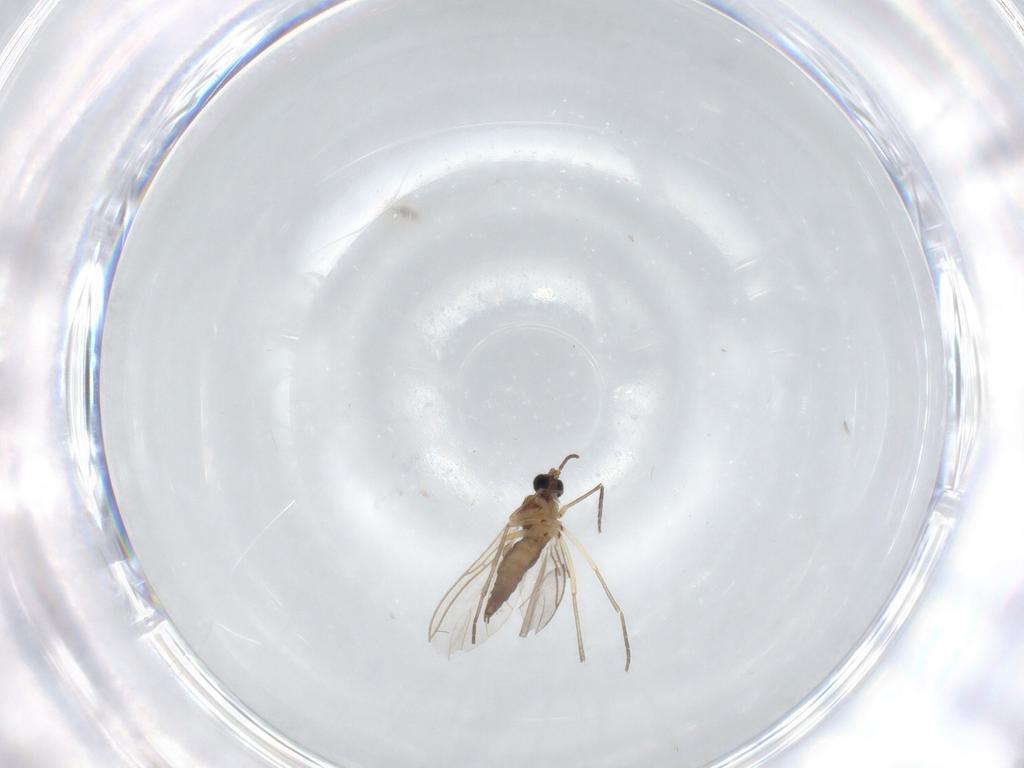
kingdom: Animalia
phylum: Arthropoda
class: Insecta
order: Diptera
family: Sciaridae
